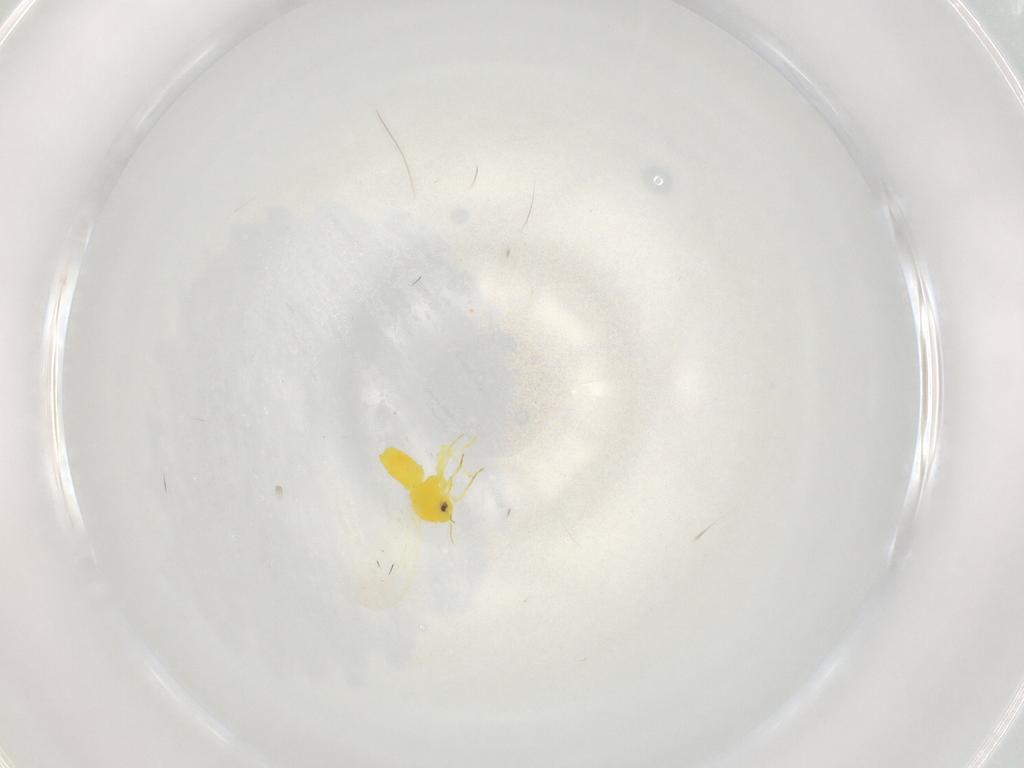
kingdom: Animalia
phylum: Arthropoda
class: Insecta
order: Hemiptera
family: Aleyrodidae
